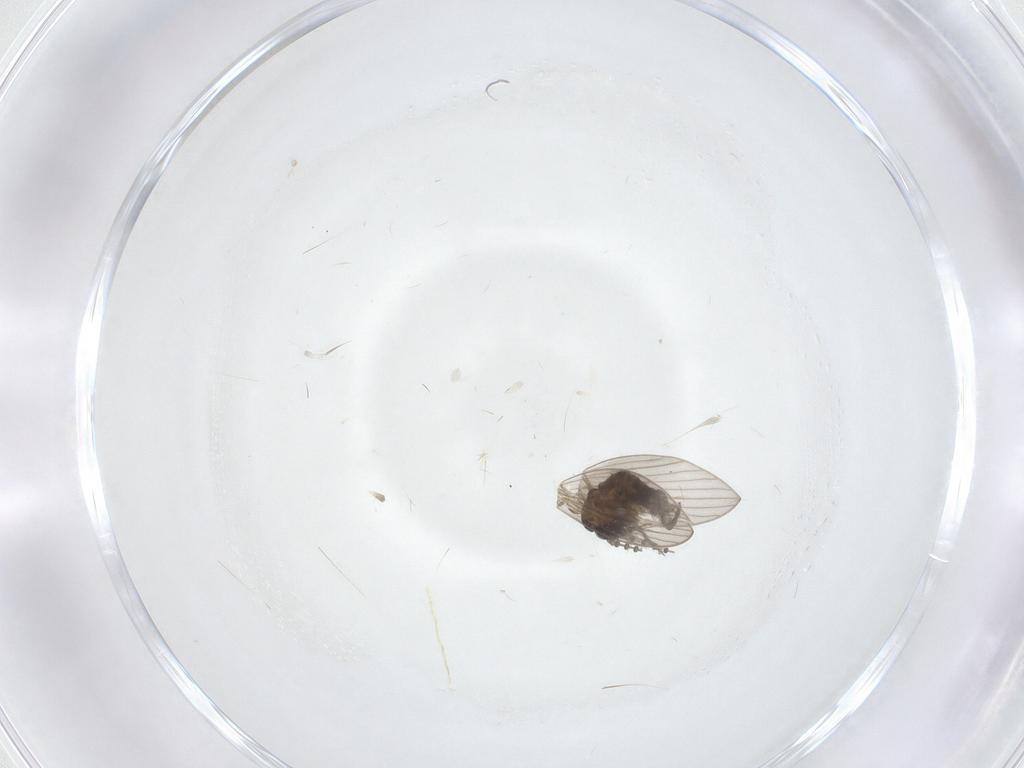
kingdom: Animalia
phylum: Arthropoda
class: Insecta
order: Diptera
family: Psychodidae
